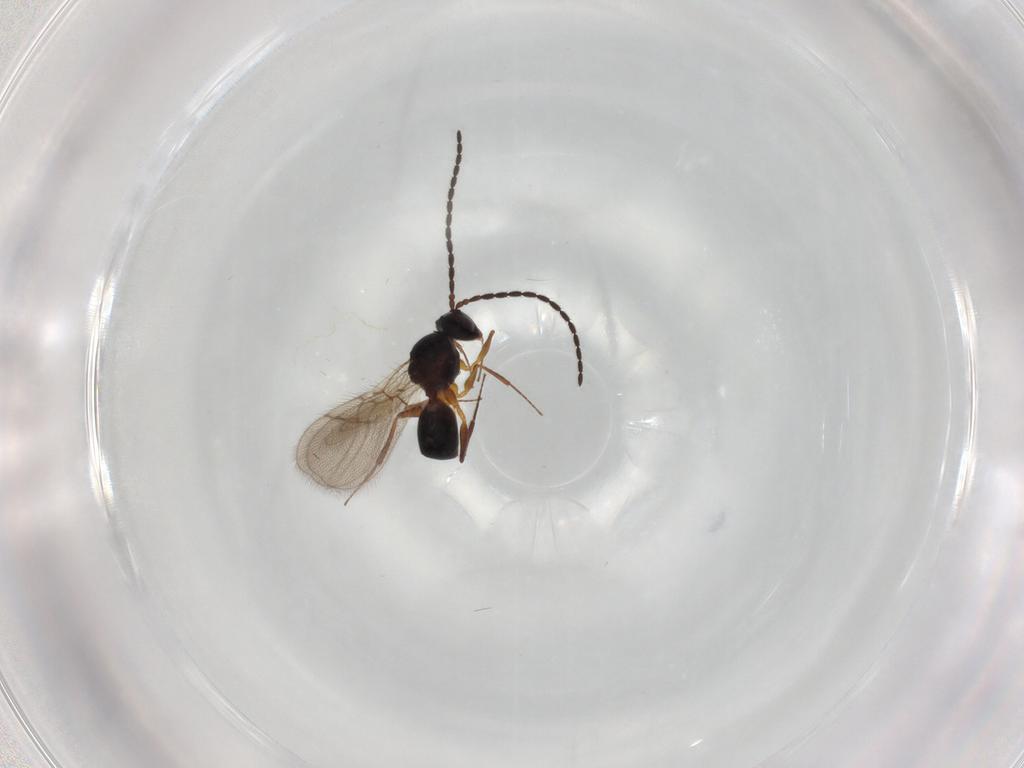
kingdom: Animalia
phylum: Arthropoda
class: Insecta
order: Hymenoptera
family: Figitidae
